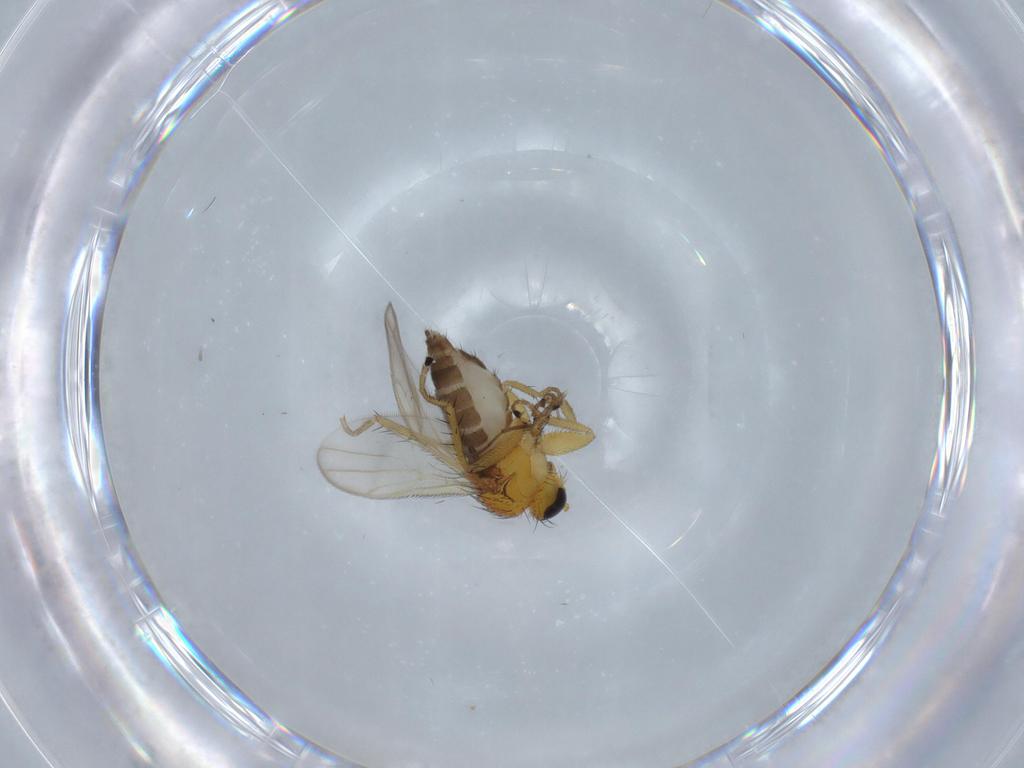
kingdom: Animalia
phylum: Arthropoda
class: Insecta
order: Diptera
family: Hybotidae
